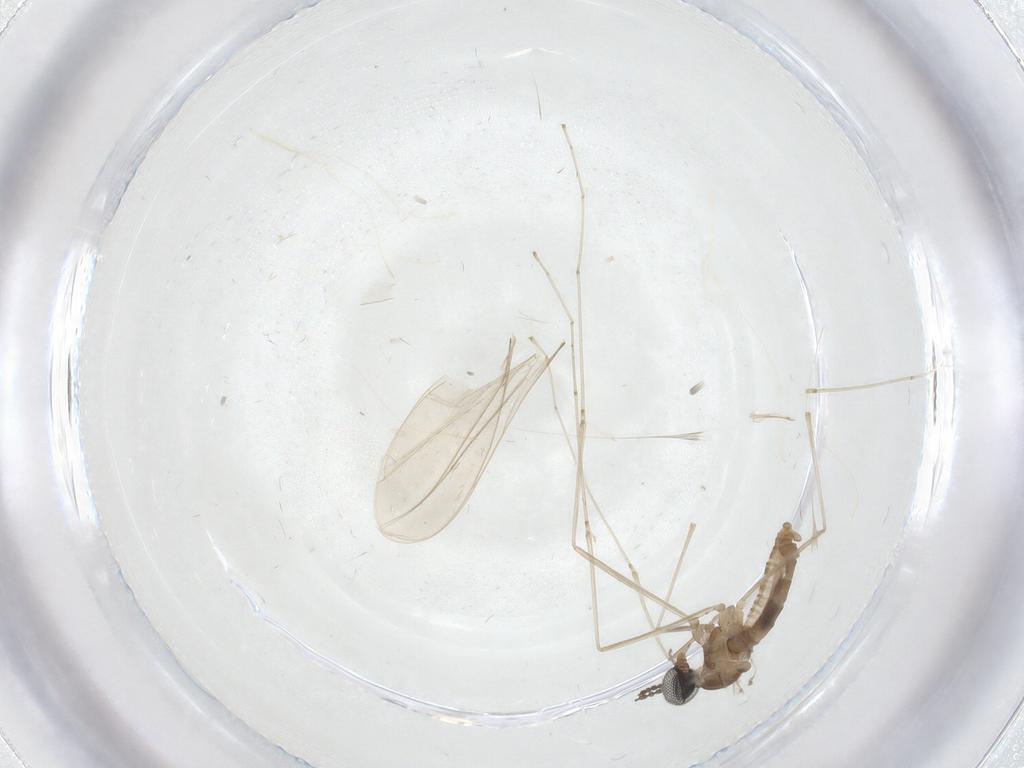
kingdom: Animalia
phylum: Arthropoda
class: Insecta
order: Diptera
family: Cecidomyiidae
